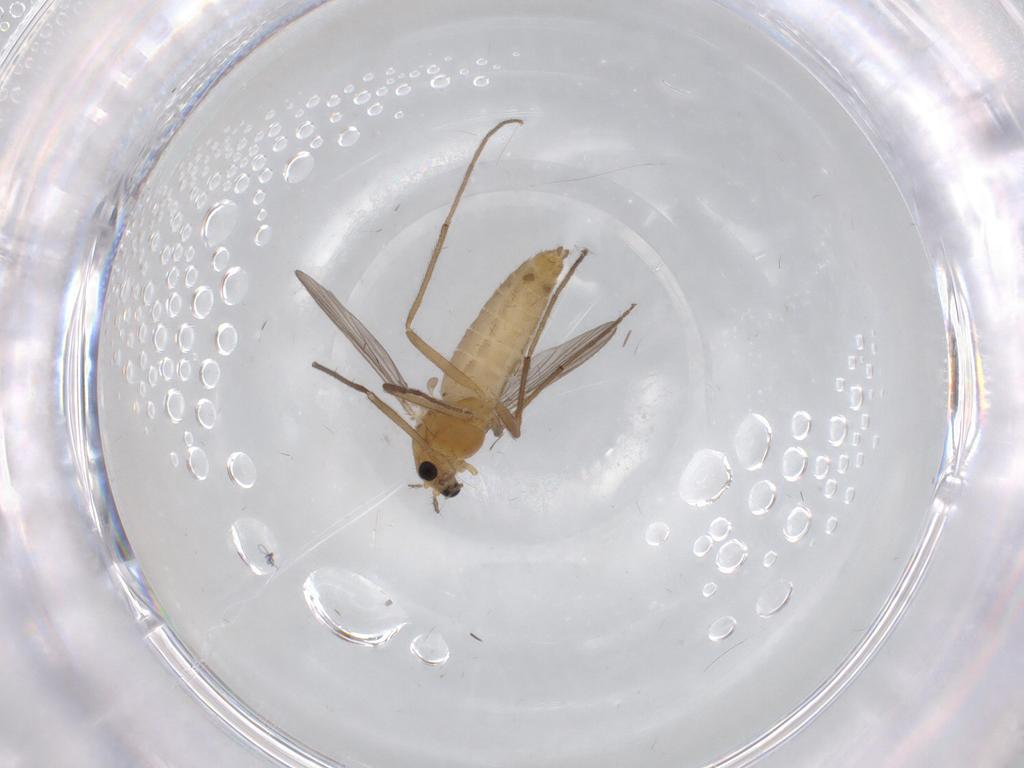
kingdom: Animalia
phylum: Arthropoda
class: Insecta
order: Diptera
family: Chironomidae
